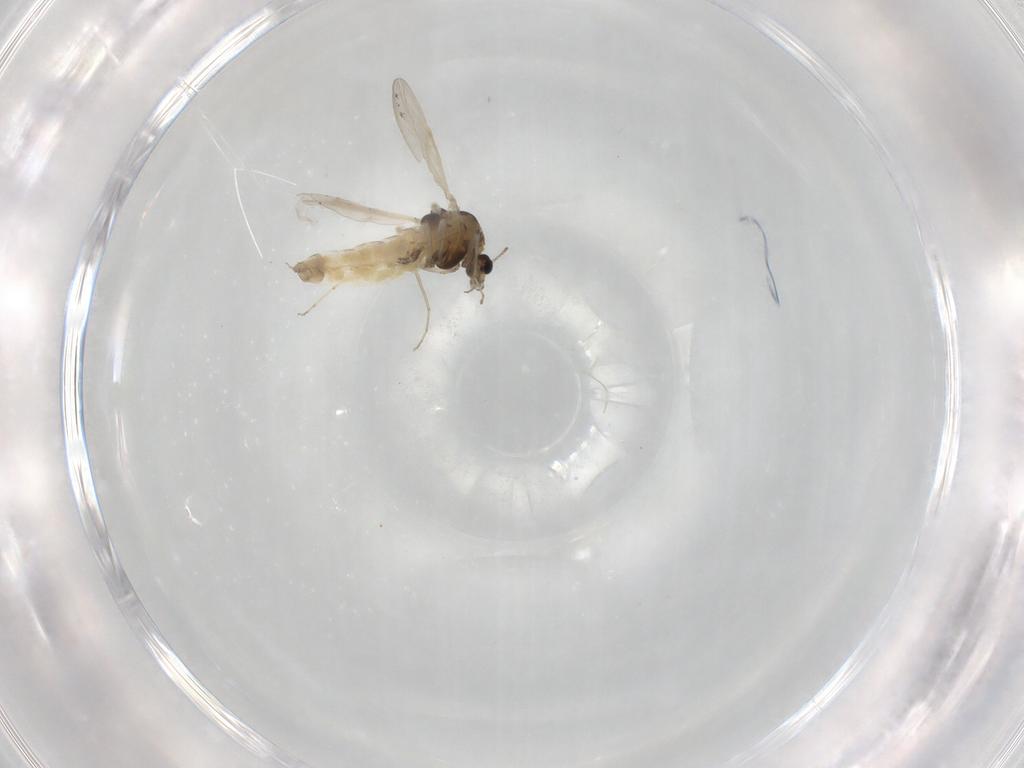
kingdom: Animalia
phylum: Arthropoda
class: Insecta
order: Diptera
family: Chironomidae
